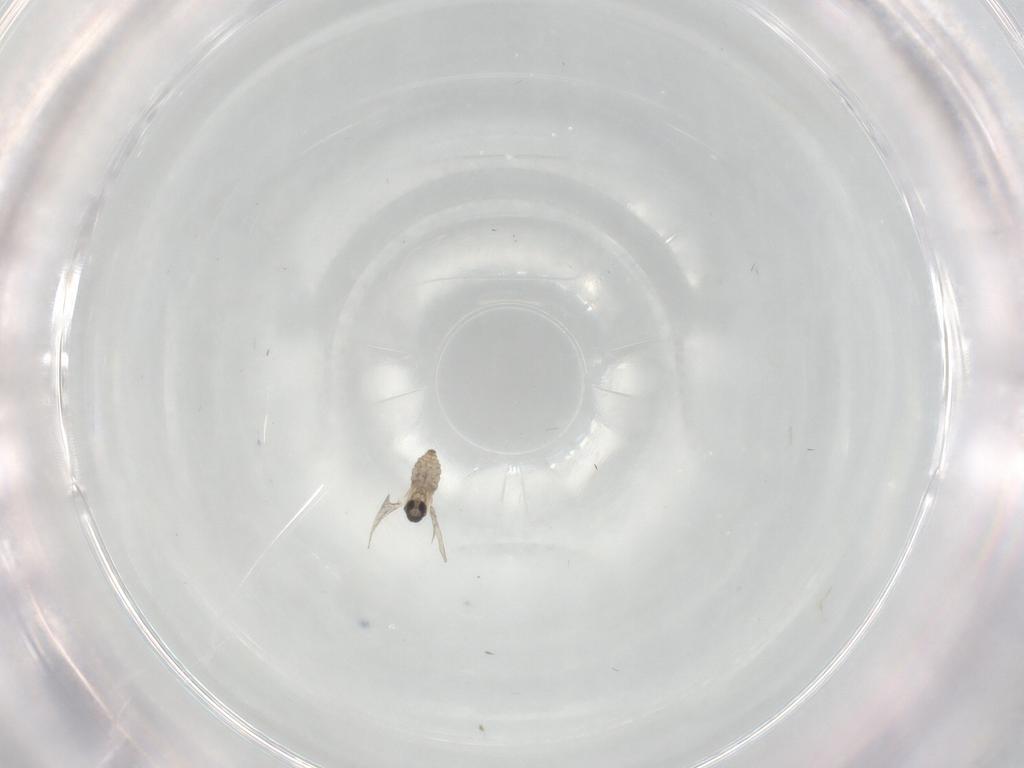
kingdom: Animalia
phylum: Arthropoda
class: Insecta
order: Diptera
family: Cecidomyiidae
